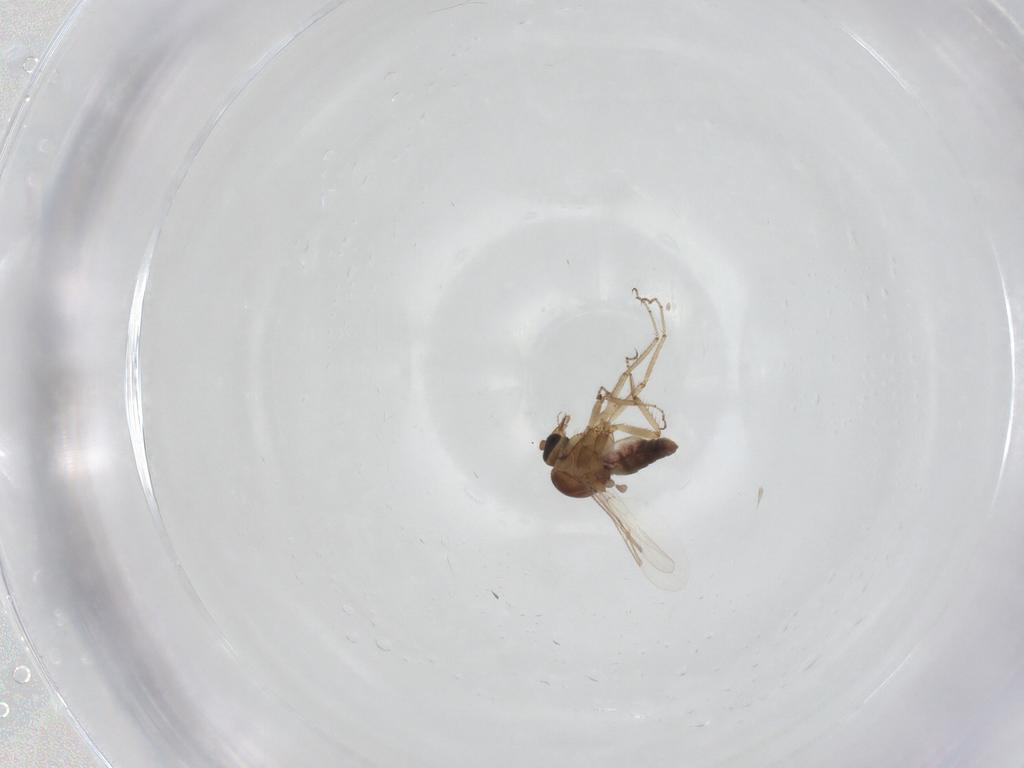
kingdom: Animalia
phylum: Arthropoda
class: Insecta
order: Diptera
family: Ceratopogonidae
